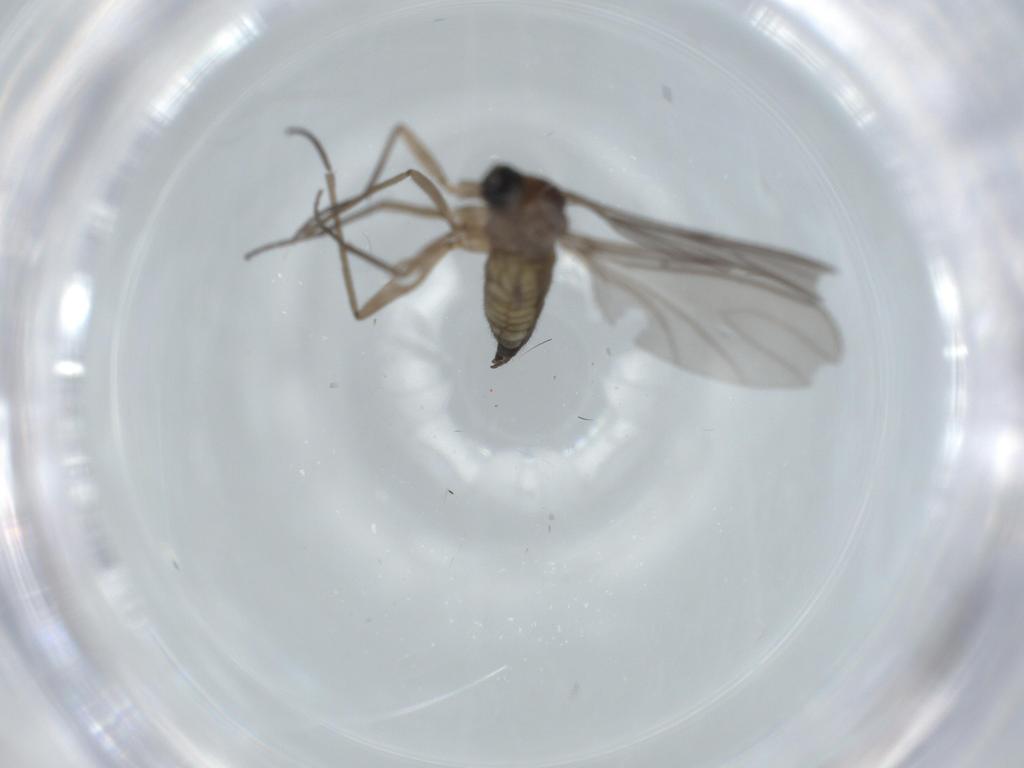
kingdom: Animalia
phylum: Arthropoda
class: Insecta
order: Diptera
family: Sciaridae
